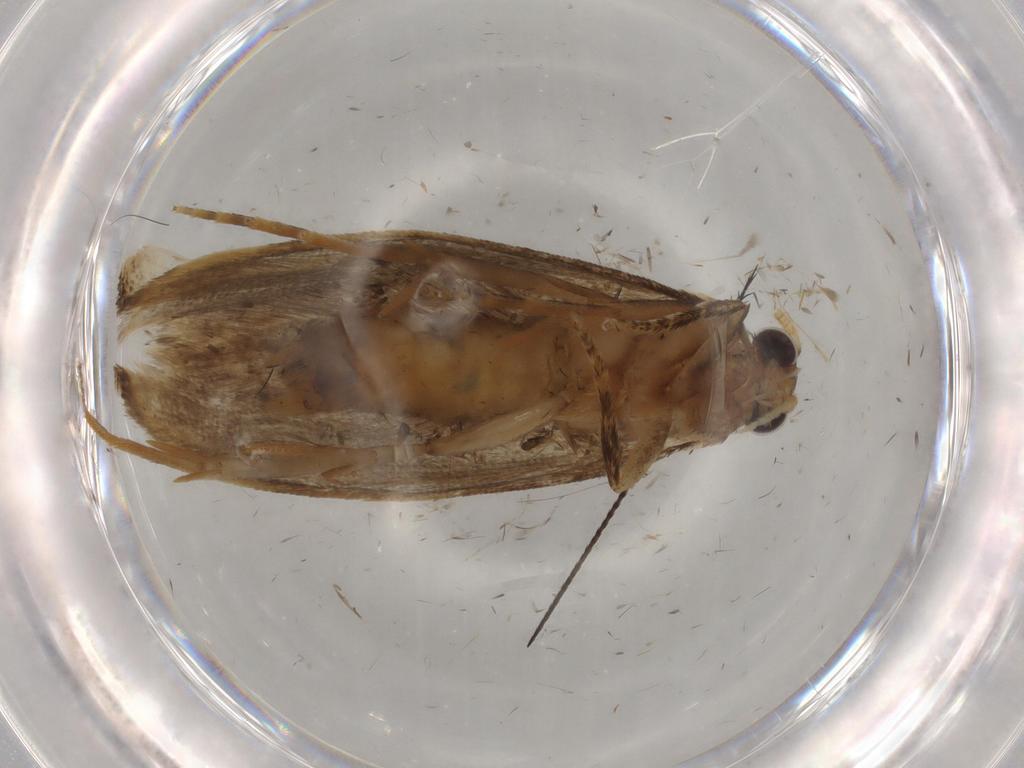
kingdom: Animalia
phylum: Arthropoda
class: Insecta
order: Lepidoptera
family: Tineidae
